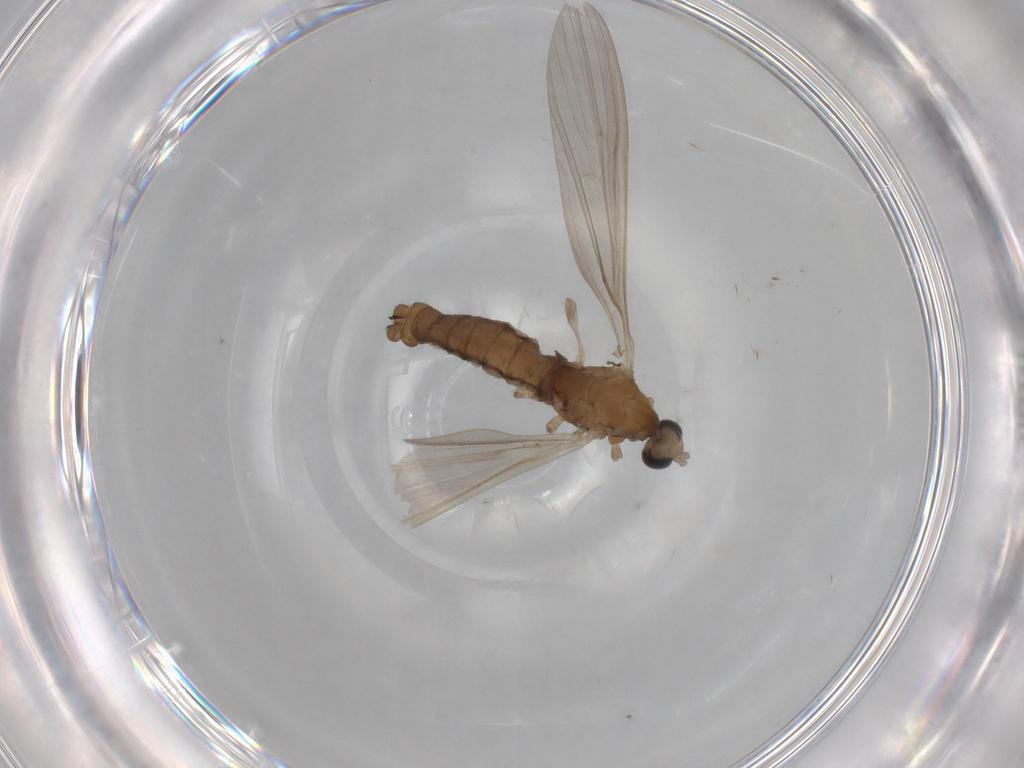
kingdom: Animalia
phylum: Arthropoda
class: Insecta
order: Diptera
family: Limoniidae
